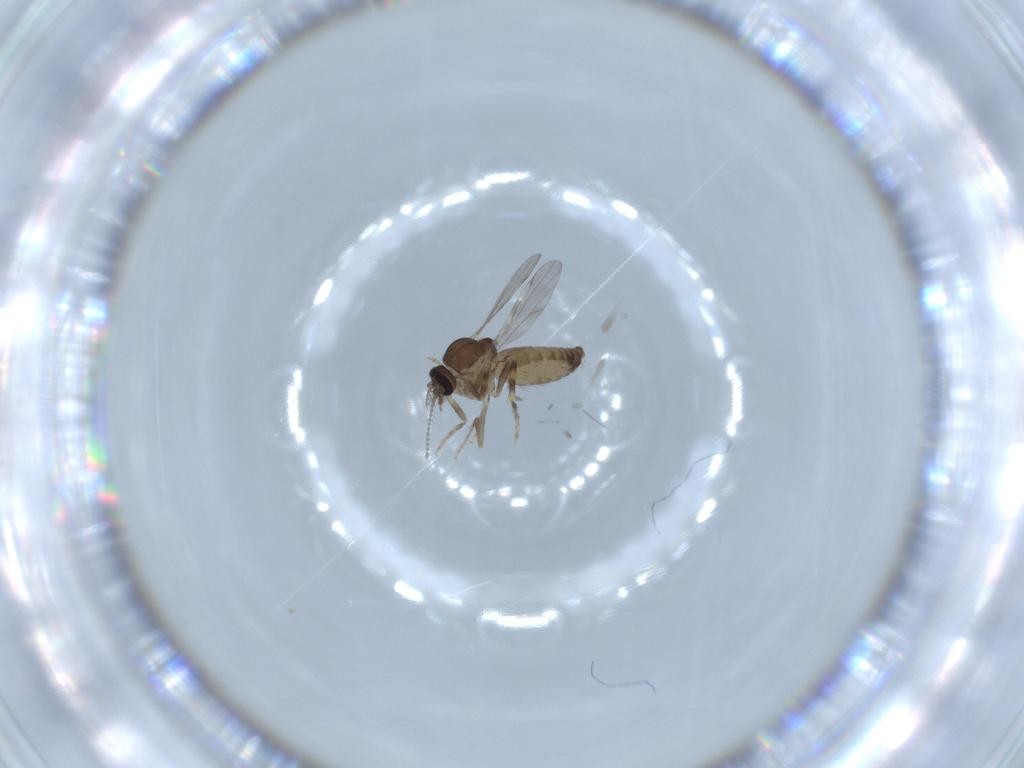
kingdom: Animalia
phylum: Arthropoda
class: Insecta
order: Diptera
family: Ceratopogonidae
